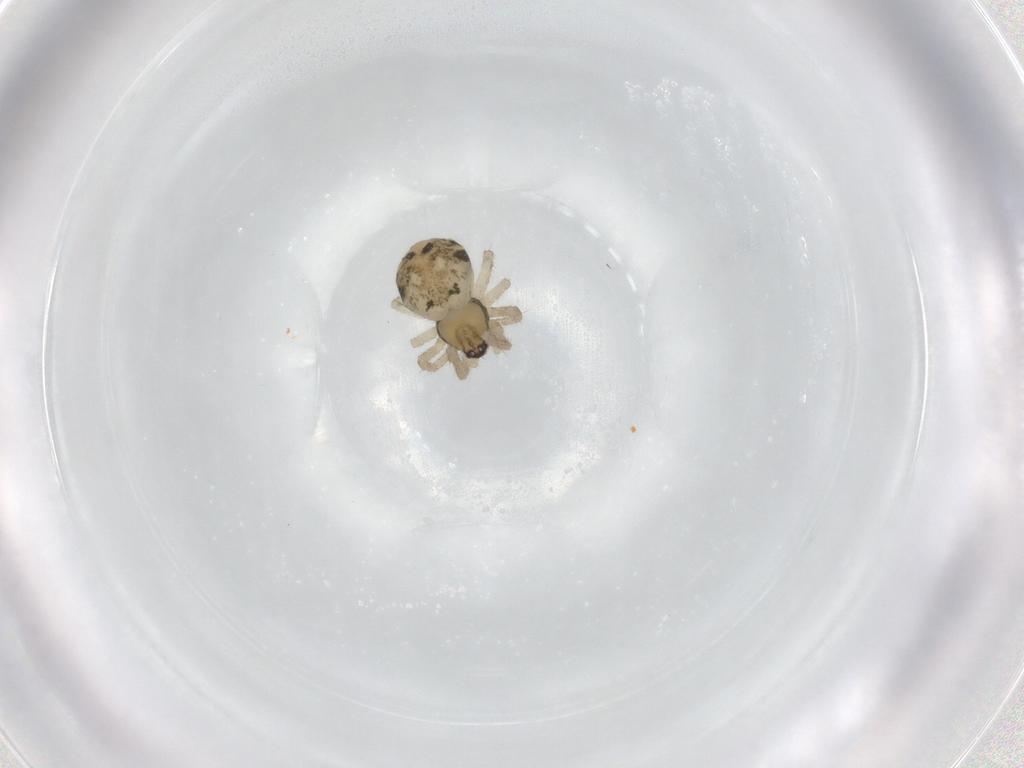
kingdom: Animalia
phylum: Arthropoda
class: Arachnida
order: Araneae
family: Theridiidae
